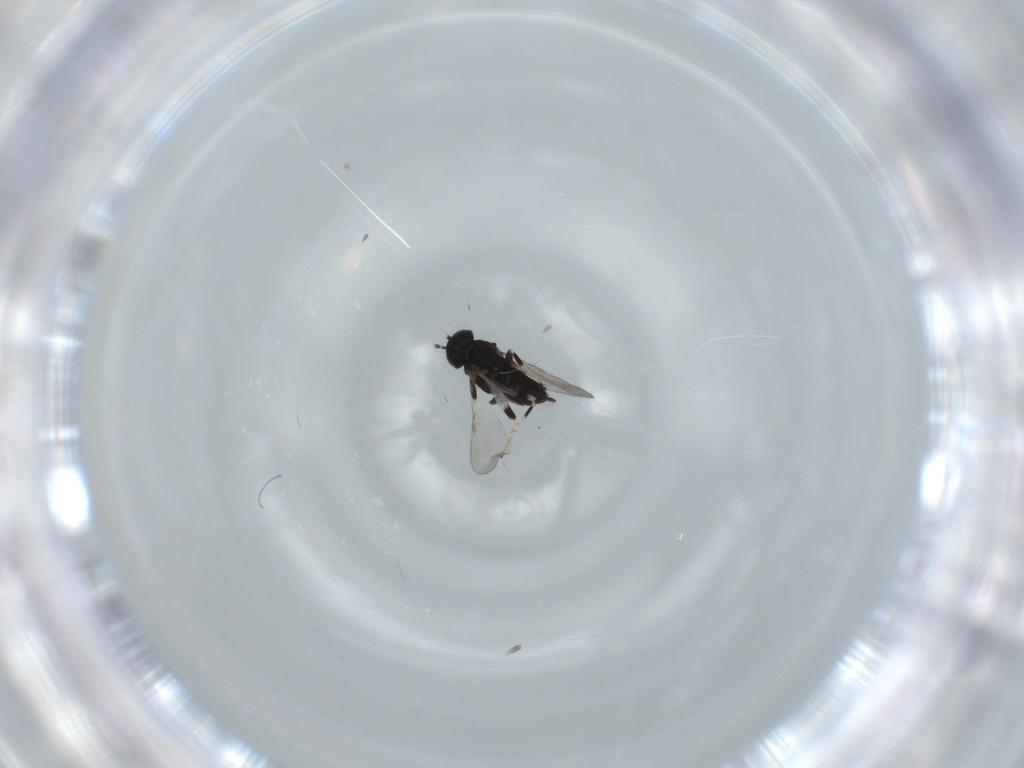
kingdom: Animalia
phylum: Arthropoda
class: Insecta
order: Hymenoptera
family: Aphelinidae
